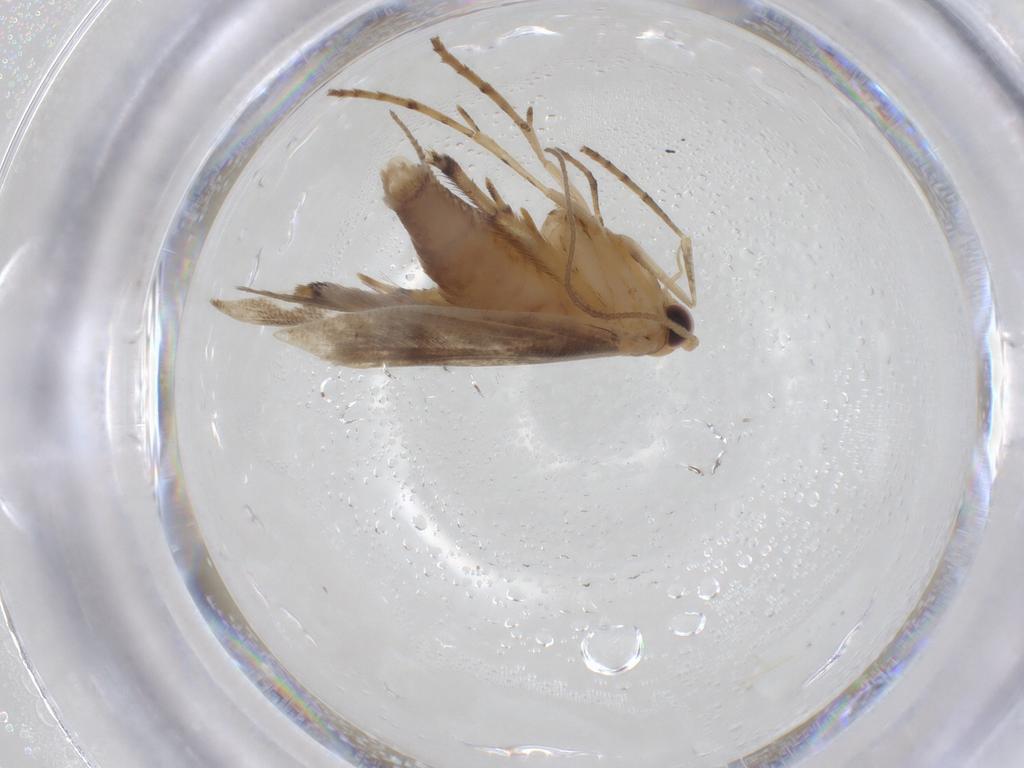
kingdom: Animalia
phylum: Arthropoda
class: Insecta
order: Lepidoptera
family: Argyresthiidae
